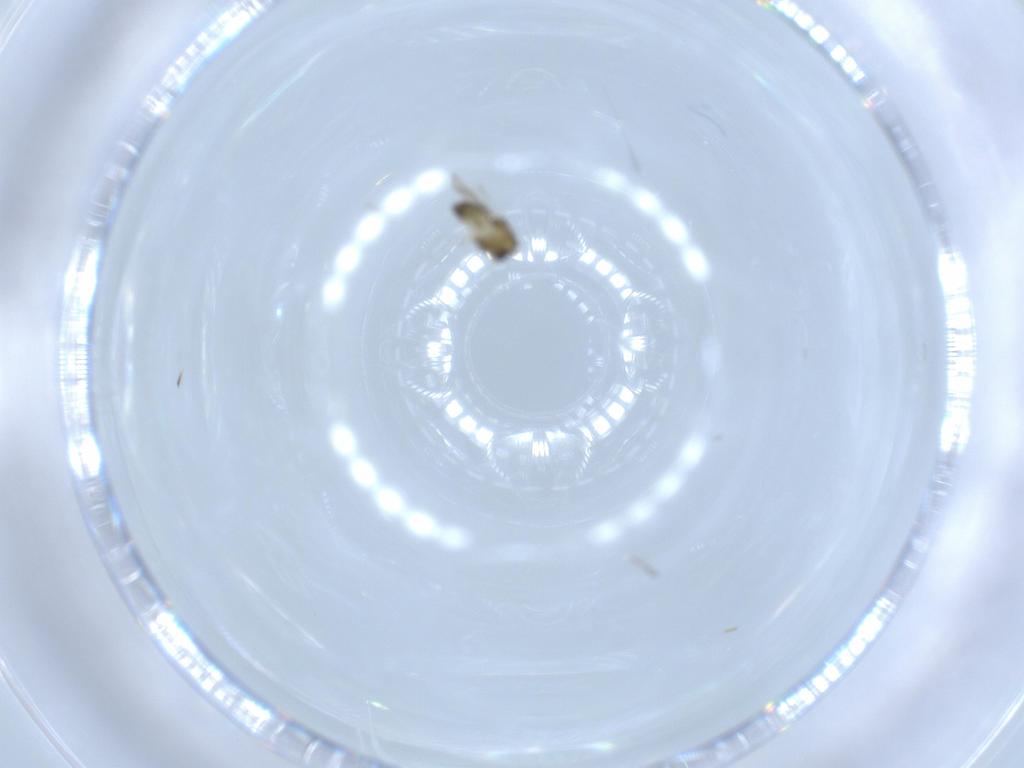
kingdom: Animalia
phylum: Arthropoda
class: Insecta
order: Diptera
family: Chironomidae
